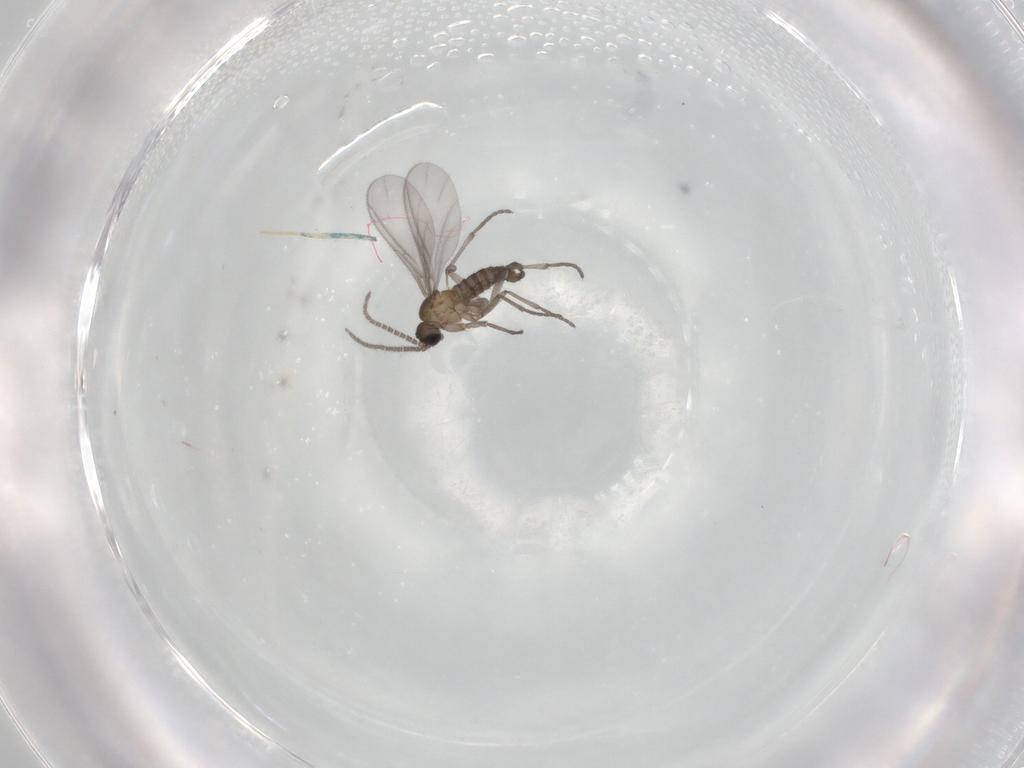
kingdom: Animalia
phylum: Arthropoda
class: Insecta
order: Diptera
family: Sciaridae
